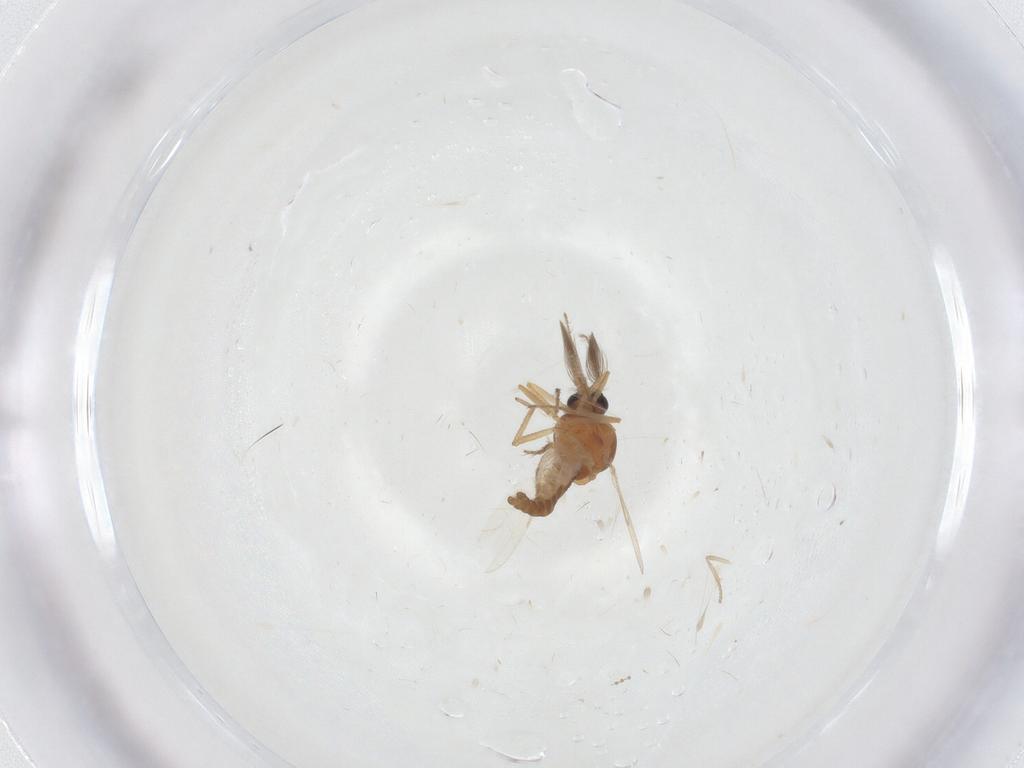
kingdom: Animalia
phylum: Arthropoda
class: Insecta
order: Diptera
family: Ceratopogonidae
